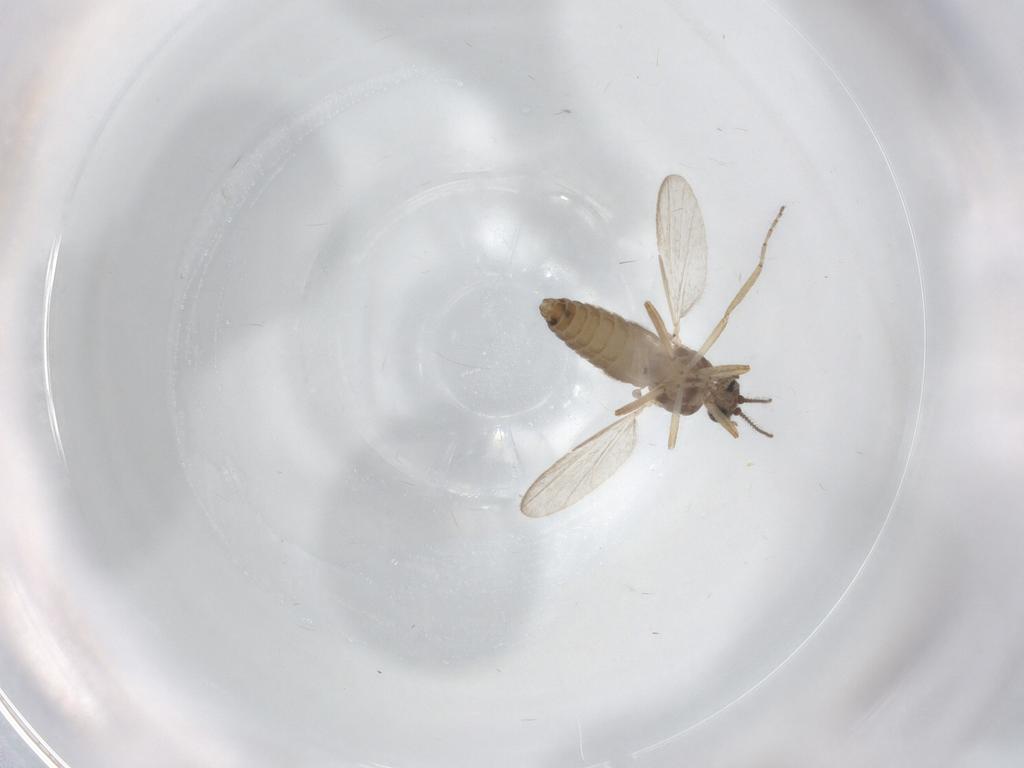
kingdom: Animalia
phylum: Arthropoda
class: Insecta
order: Diptera
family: Ceratopogonidae
